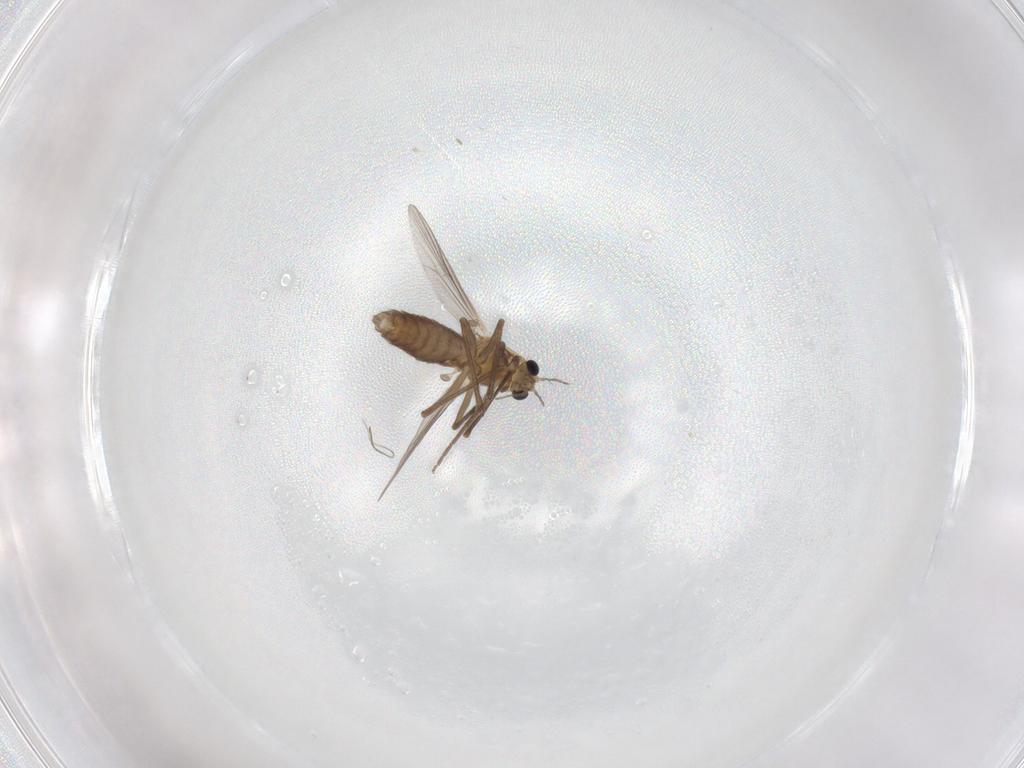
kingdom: Animalia
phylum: Arthropoda
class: Insecta
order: Diptera
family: Chironomidae
